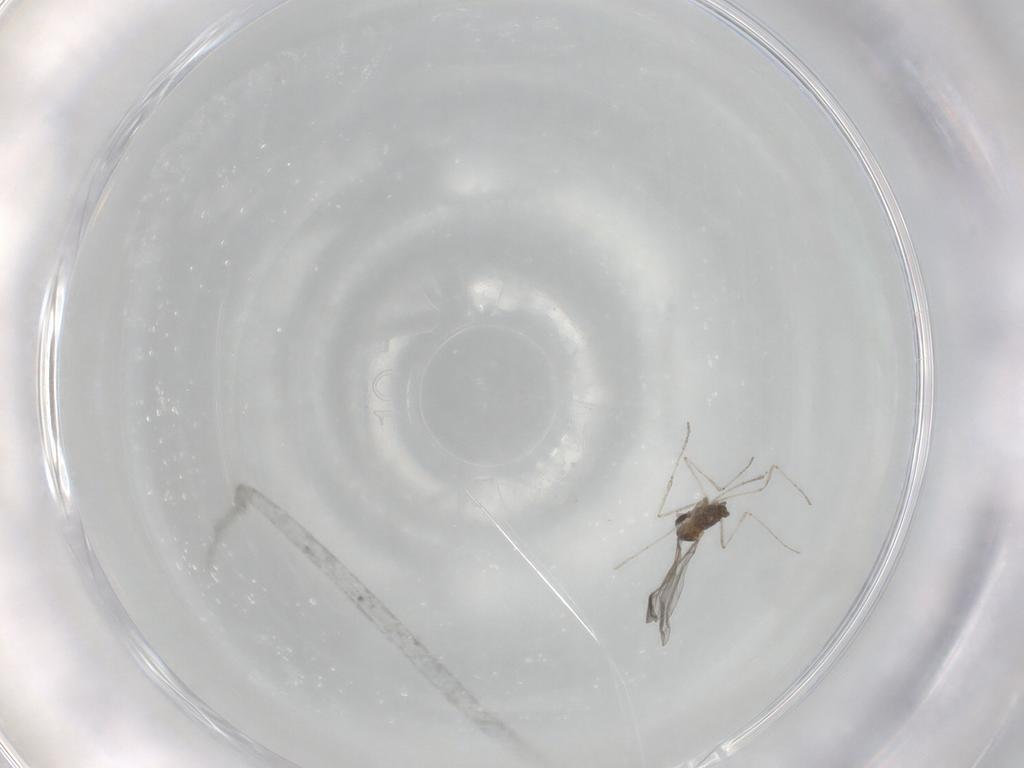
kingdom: Animalia
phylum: Arthropoda
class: Insecta
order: Diptera
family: Cecidomyiidae
